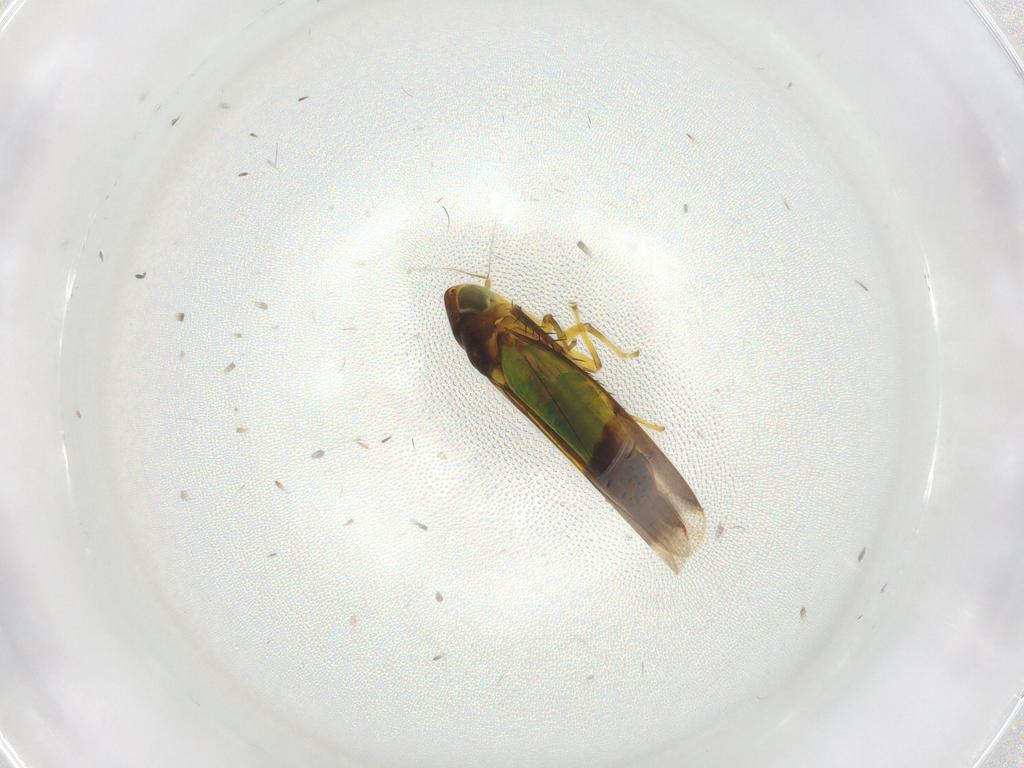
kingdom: Animalia
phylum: Arthropoda
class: Insecta
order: Hemiptera
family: Cicadellidae
